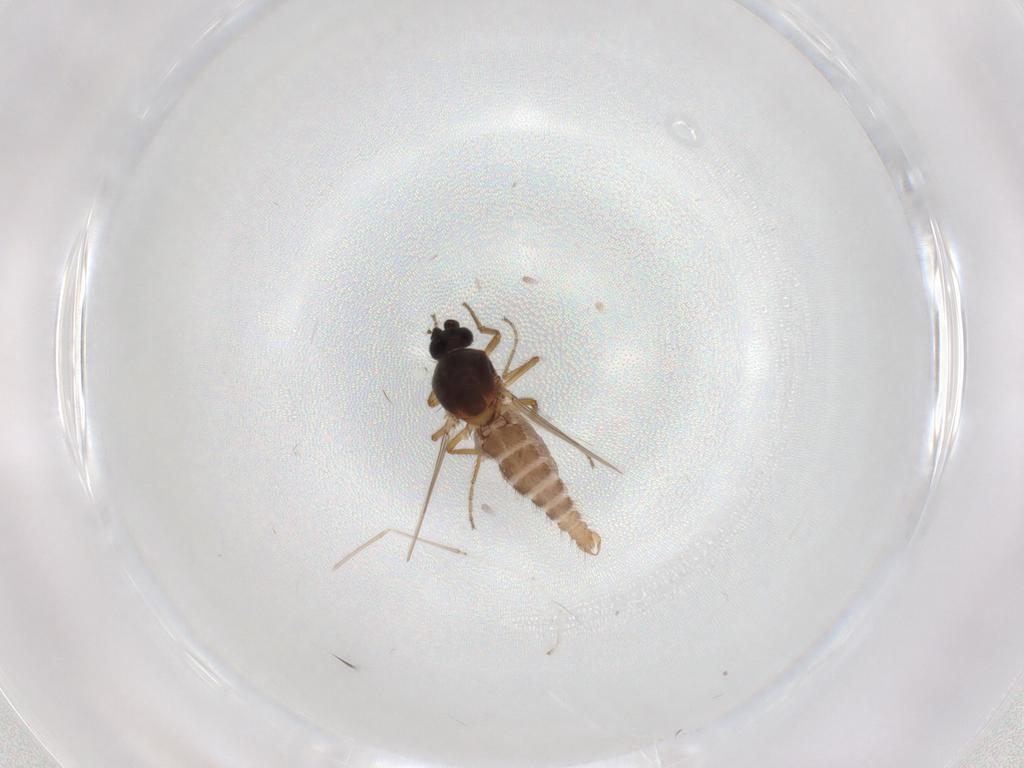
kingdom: Animalia
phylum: Arthropoda
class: Insecta
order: Diptera
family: Ceratopogonidae
